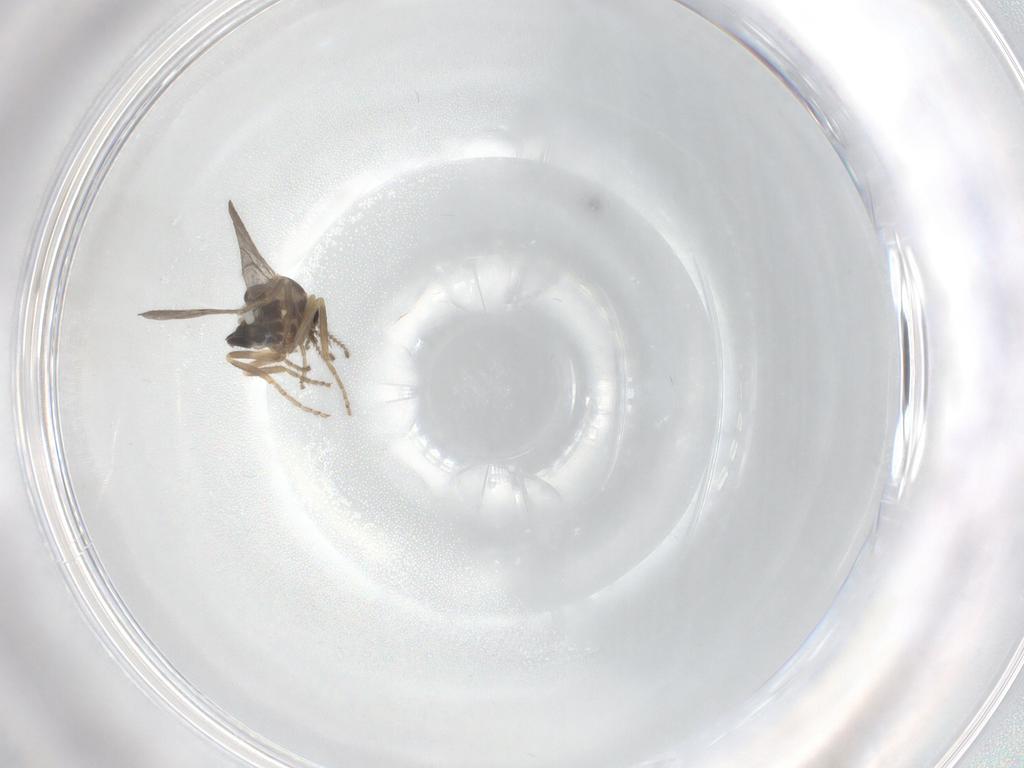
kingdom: Animalia
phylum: Arthropoda
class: Insecta
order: Diptera
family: Ceratopogonidae
